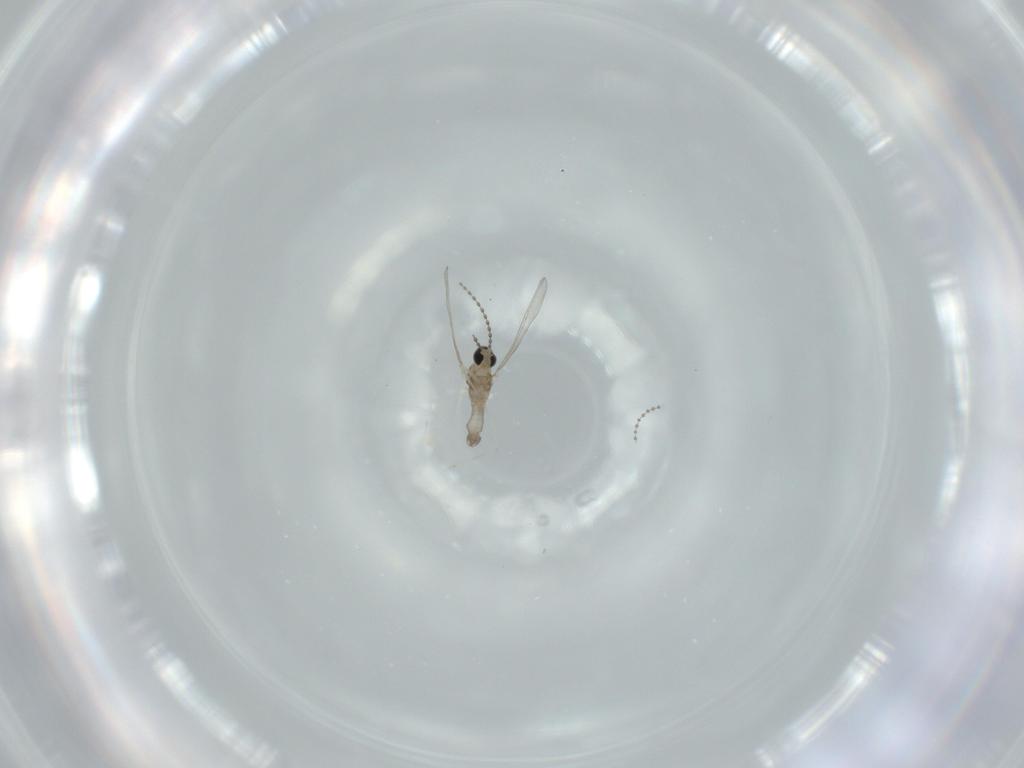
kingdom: Animalia
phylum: Arthropoda
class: Insecta
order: Diptera
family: Cecidomyiidae
